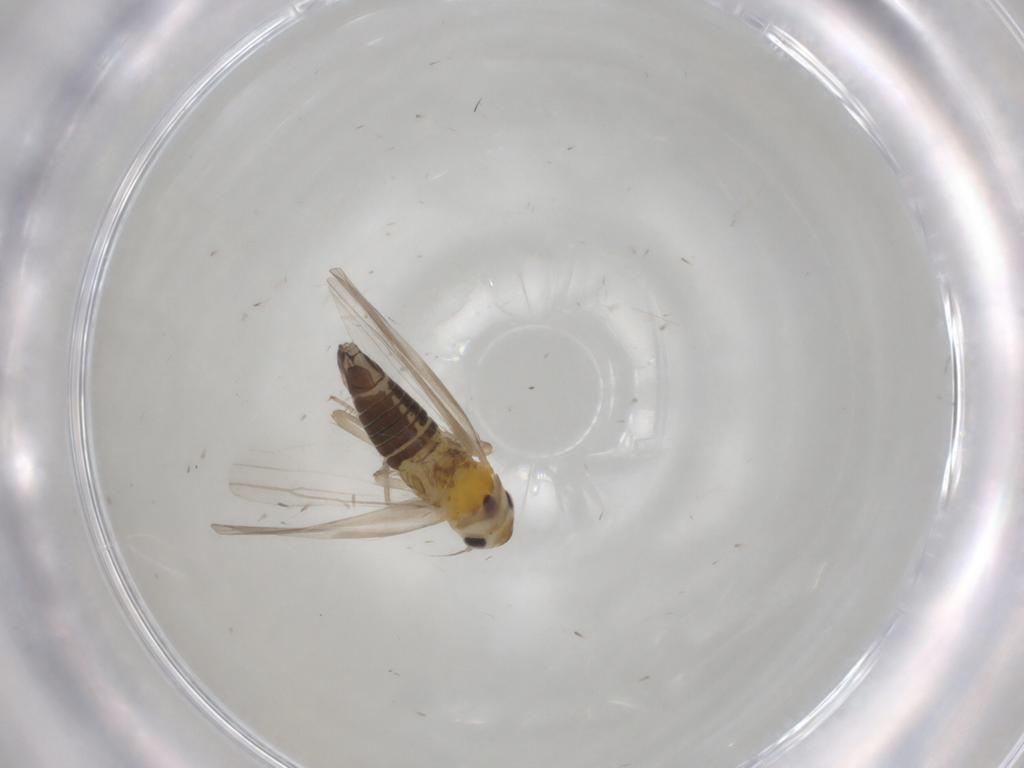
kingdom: Animalia
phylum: Arthropoda
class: Insecta
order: Hemiptera
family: Cicadellidae
